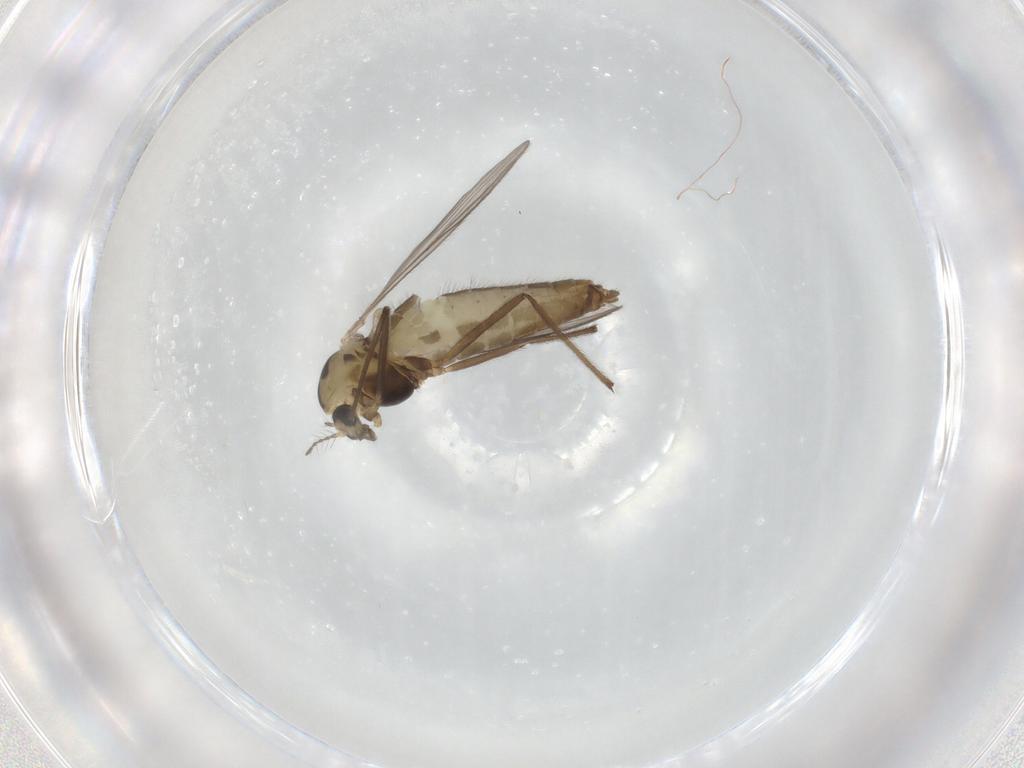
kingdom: Animalia
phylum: Arthropoda
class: Insecta
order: Diptera
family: Chironomidae
